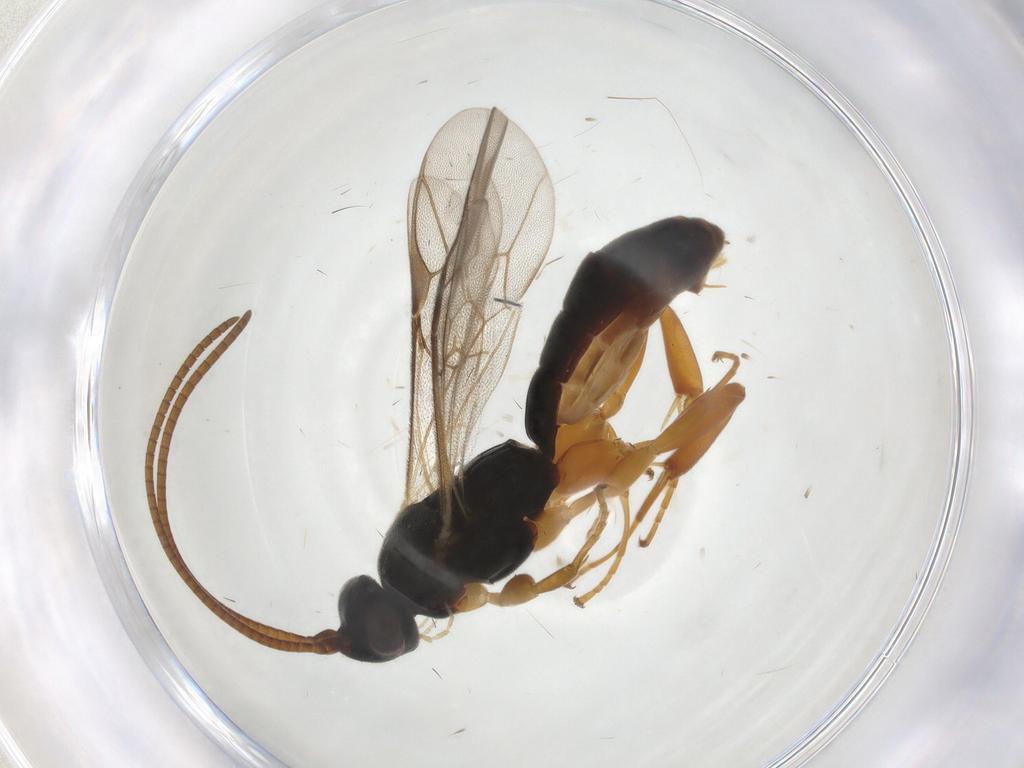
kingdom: Animalia
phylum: Arthropoda
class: Insecta
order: Hymenoptera
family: Ichneumonidae
